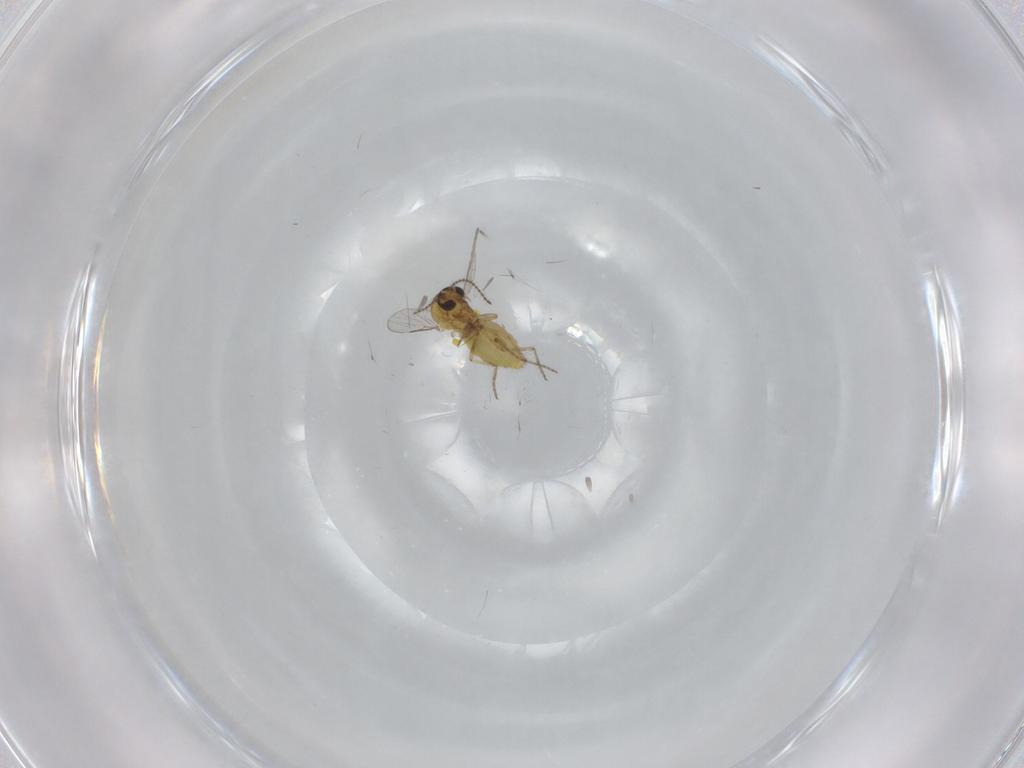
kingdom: Animalia
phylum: Arthropoda
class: Insecta
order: Diptera
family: Ceratopogonidae
